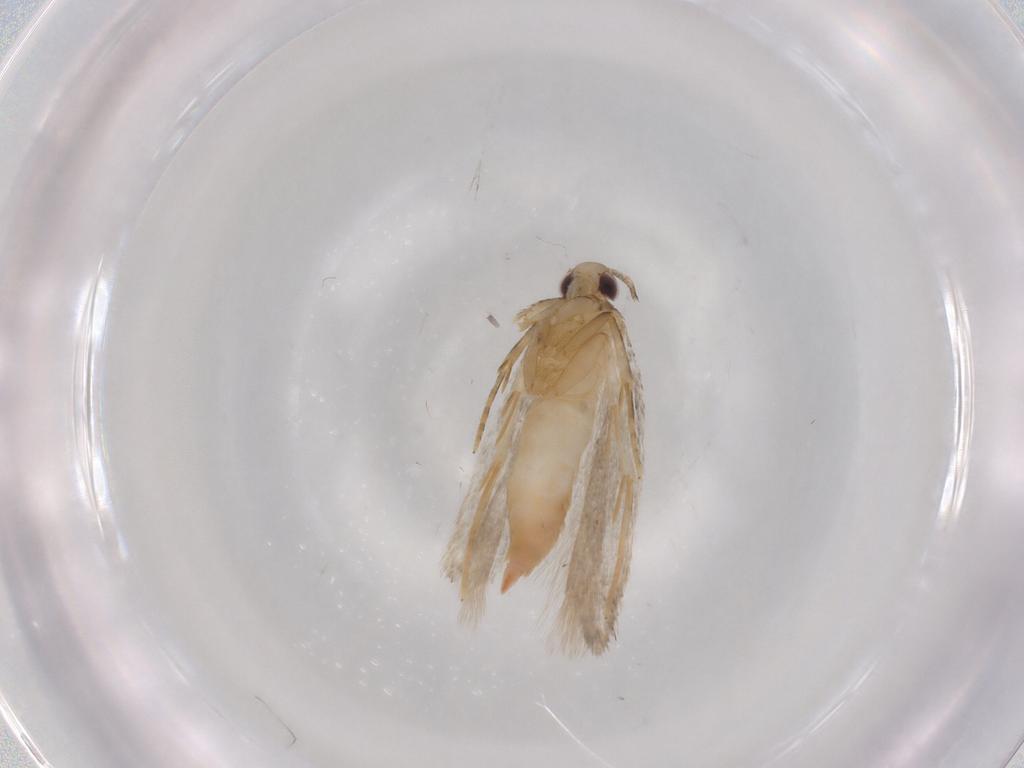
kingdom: Animalia
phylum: Arthropoda
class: Insecta
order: Lepidoptera
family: Autostichidae
